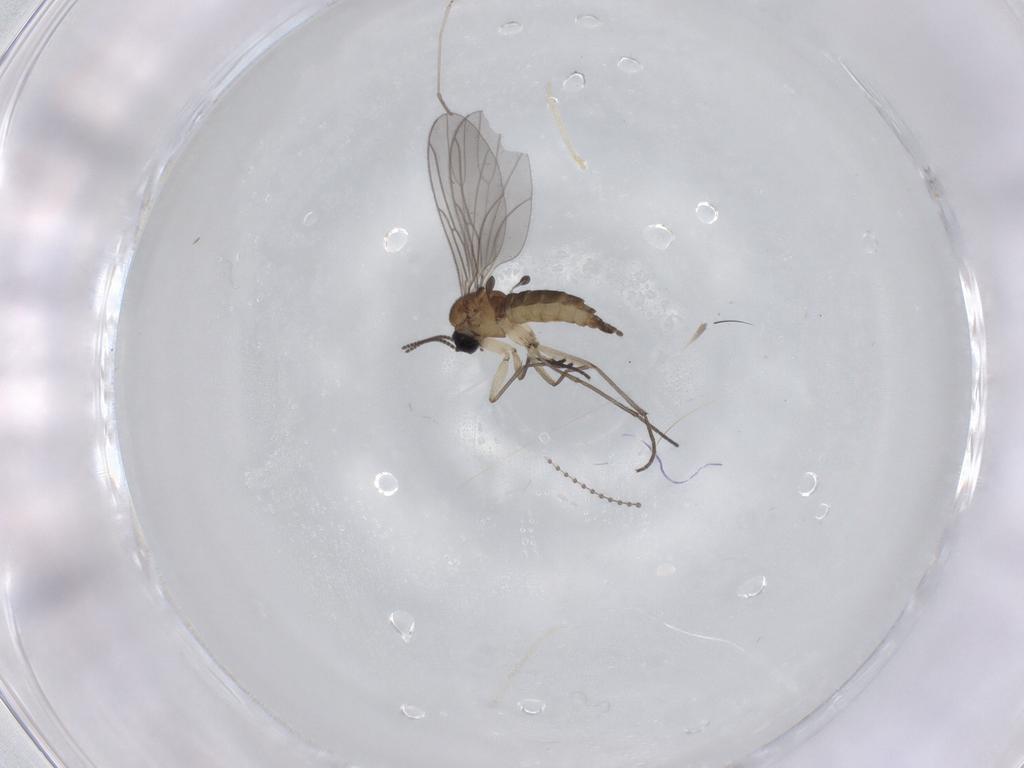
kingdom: Animalia
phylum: Arthropoda
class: Insecta
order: Diptera
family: Sciaridae
